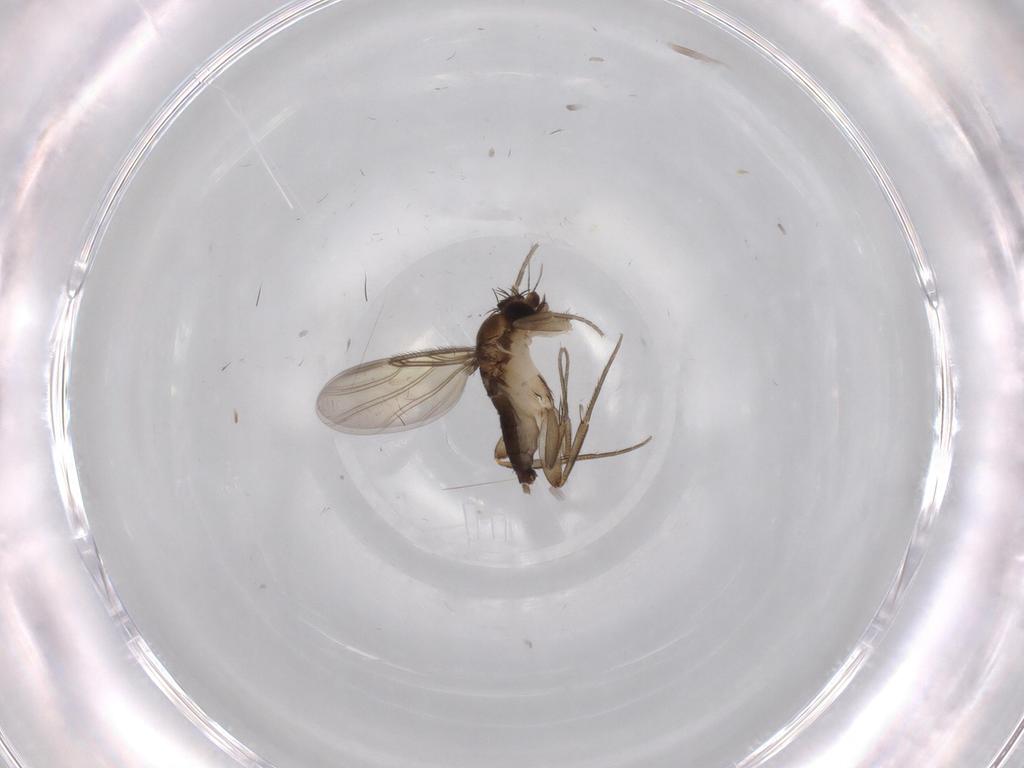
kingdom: Animalia
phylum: Arthropoda
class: Insecta
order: Diptera
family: Phoridae
